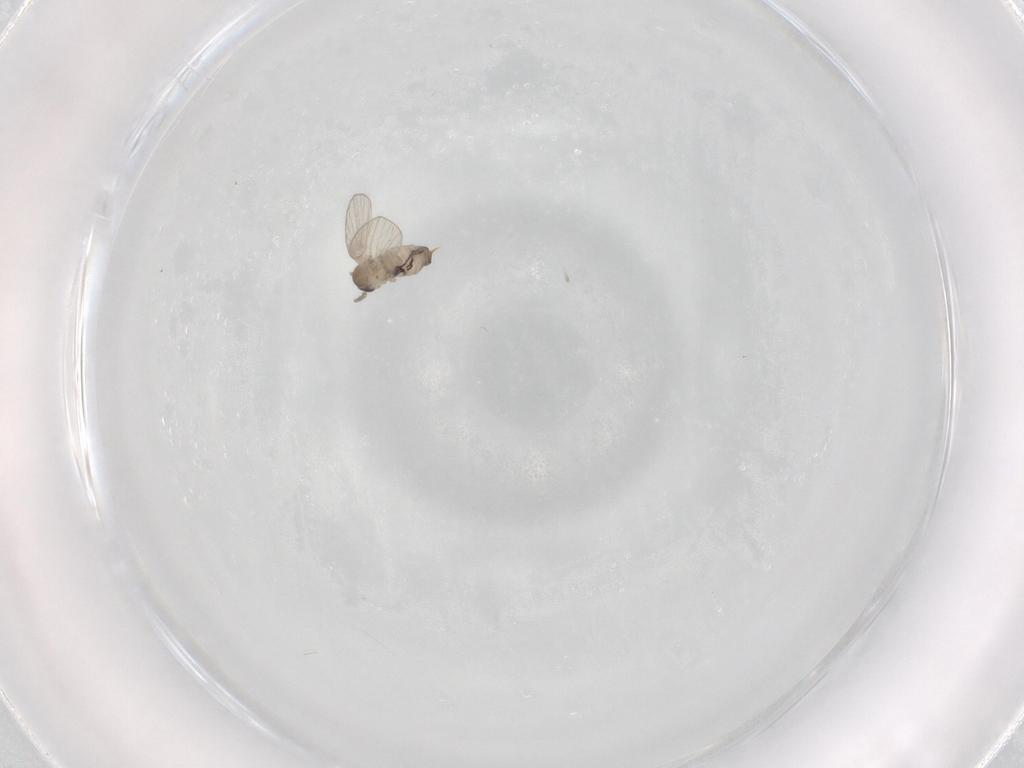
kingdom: Animalia
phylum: Arthropoda
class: Insecta
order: Diptera
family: Psychodidae
